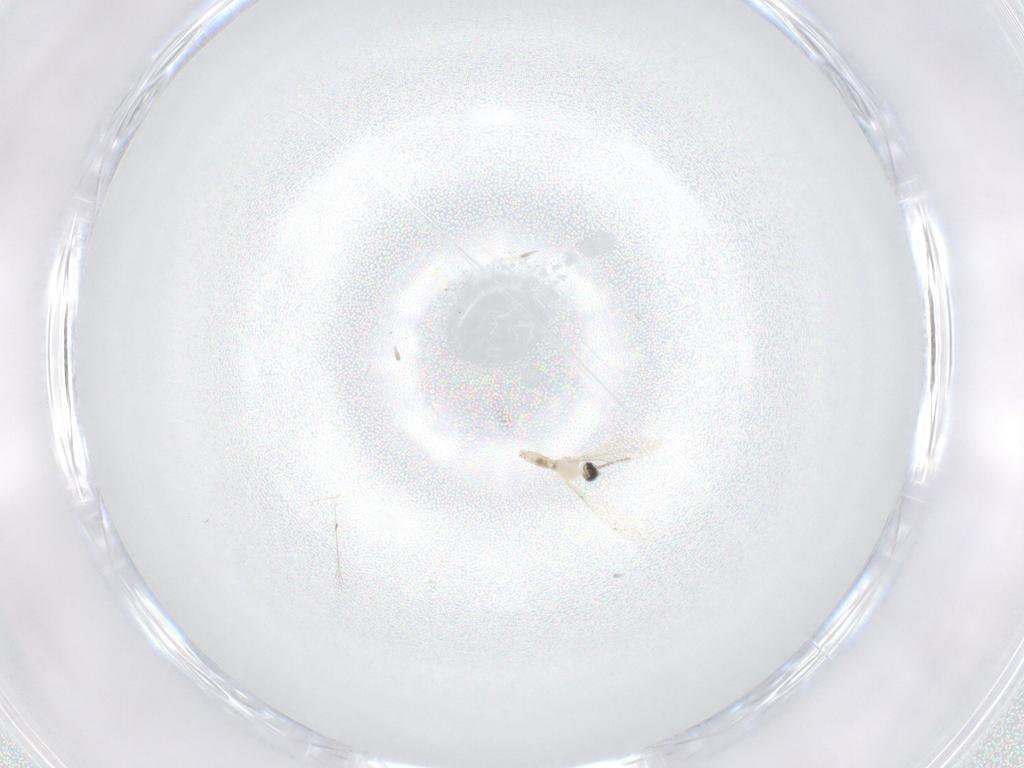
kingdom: Animalia
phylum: Arthropoda
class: Insecta
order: Diptera
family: Cecidomyiidae
